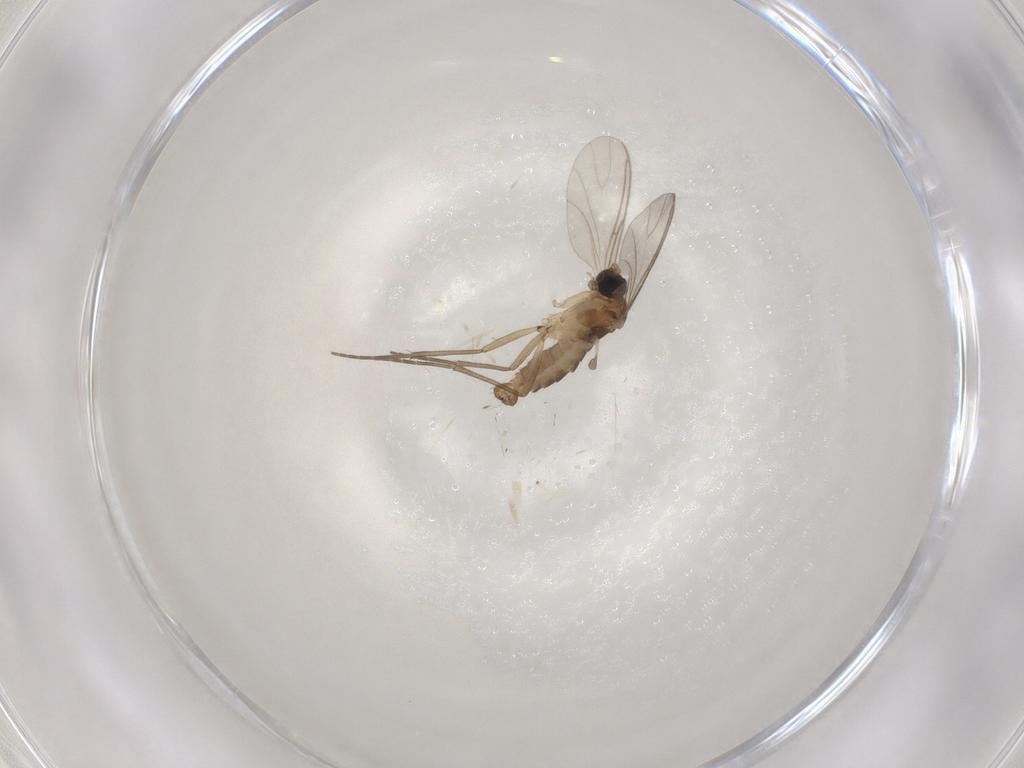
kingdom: Animalia
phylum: Arthropoda
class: Insecta
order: Diptera
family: Sciaridae
